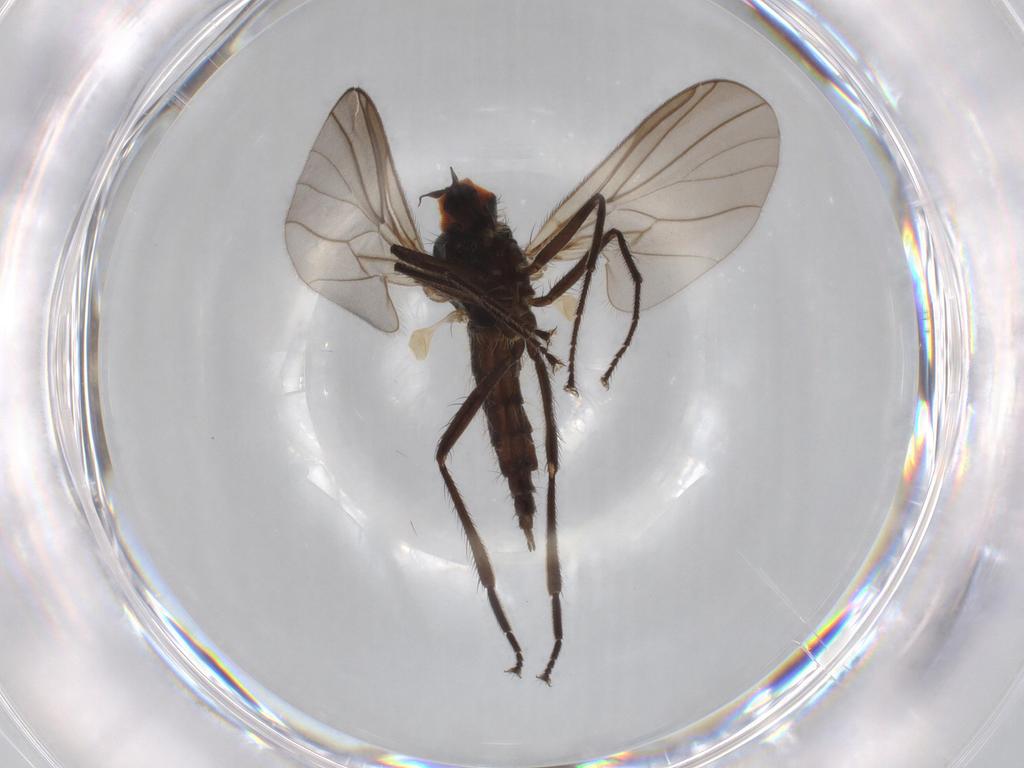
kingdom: Animalia
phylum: Arthropoda
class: Insecta
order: Diptera
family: Hybotidae
